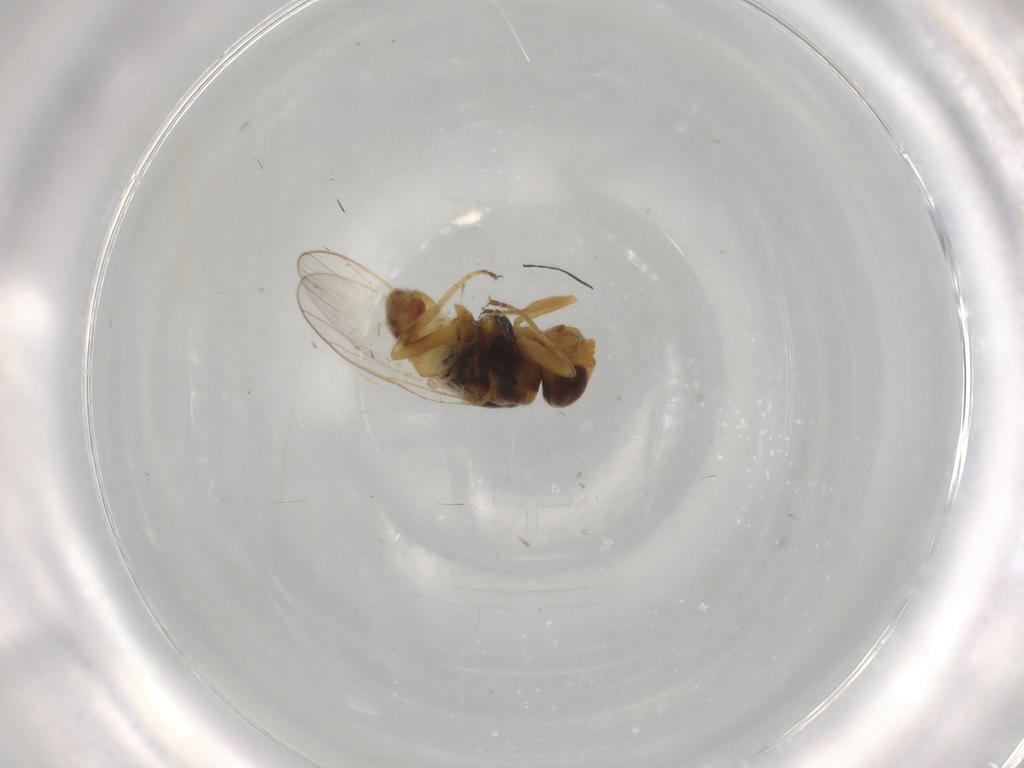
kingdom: Animalia
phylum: Arthropoda
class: Insecta
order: Diptera
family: Chloropidae
